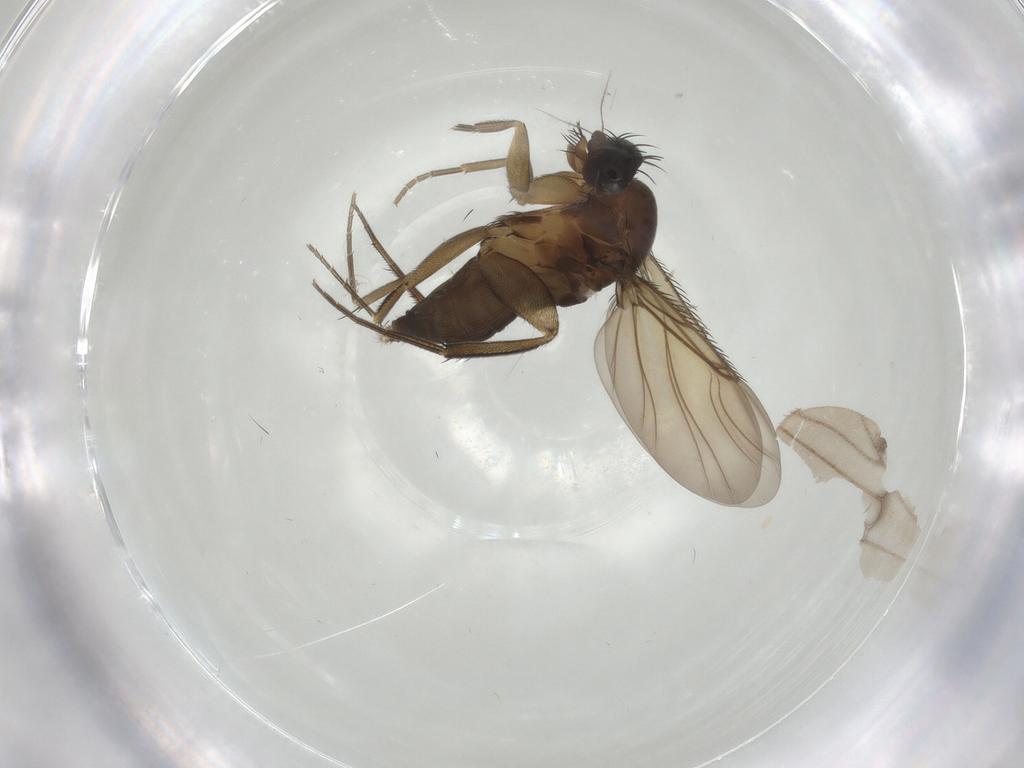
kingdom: Animalia
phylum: Arthropoda
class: Insecta
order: Diptera
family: Phoridae
